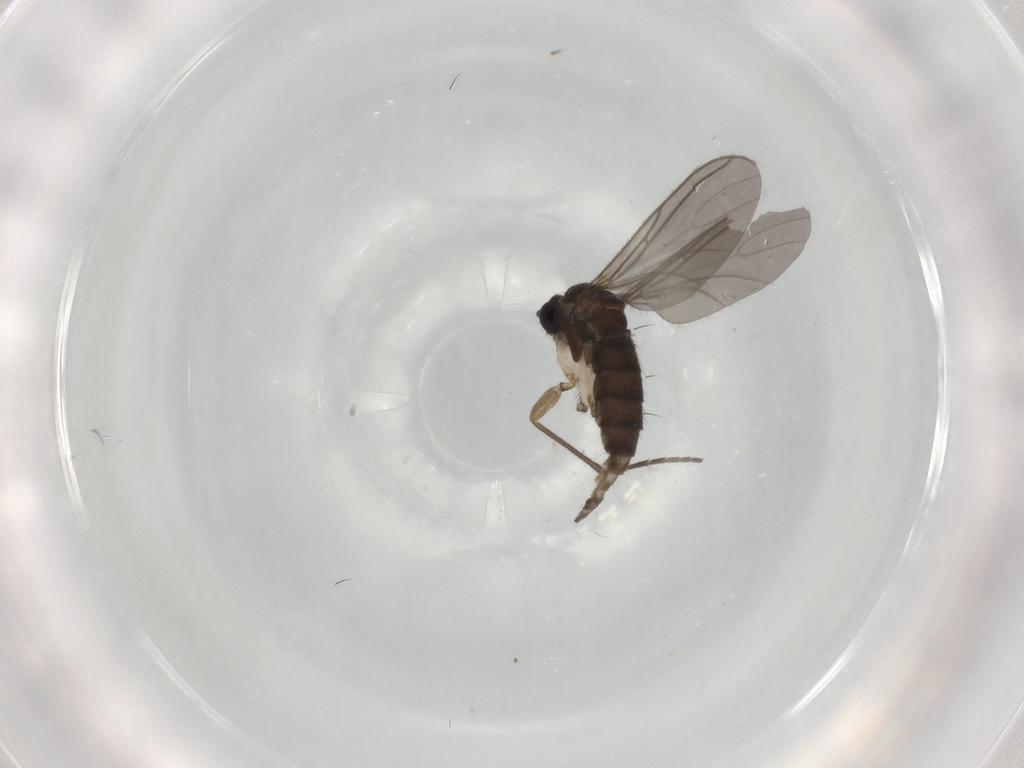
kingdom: Animalia
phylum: Arthropoda
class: Insecta
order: Diptera
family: Sciaridae
